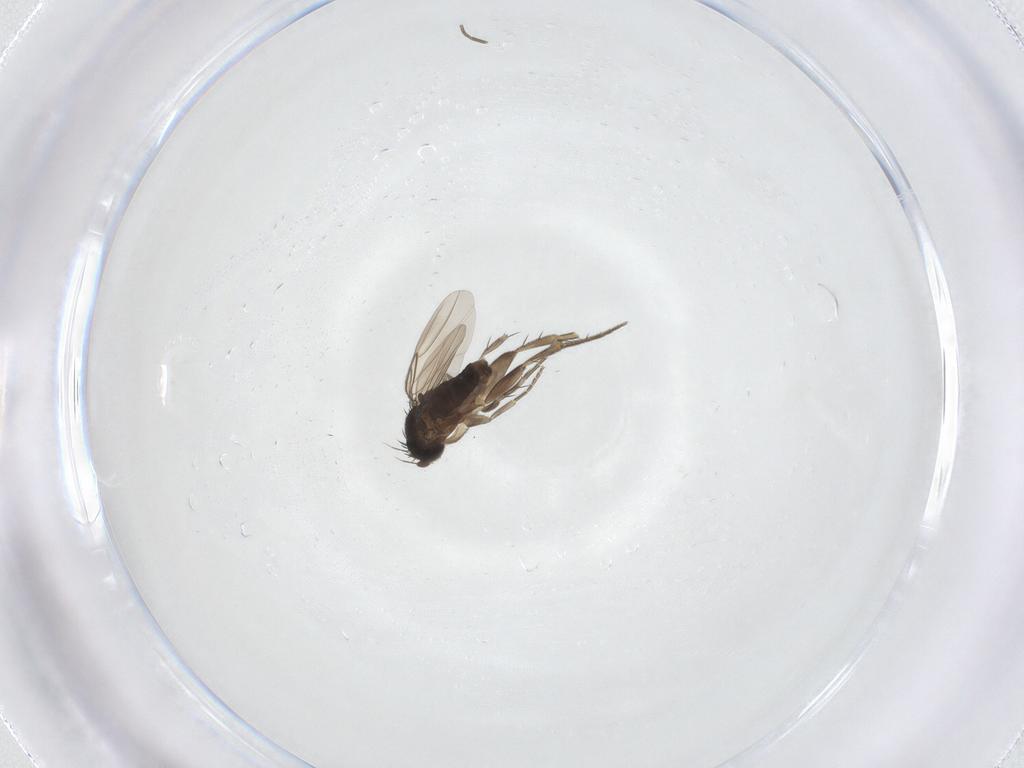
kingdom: Animalia
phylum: Arthropoda
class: Insecta
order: Diptera
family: Phoridae
